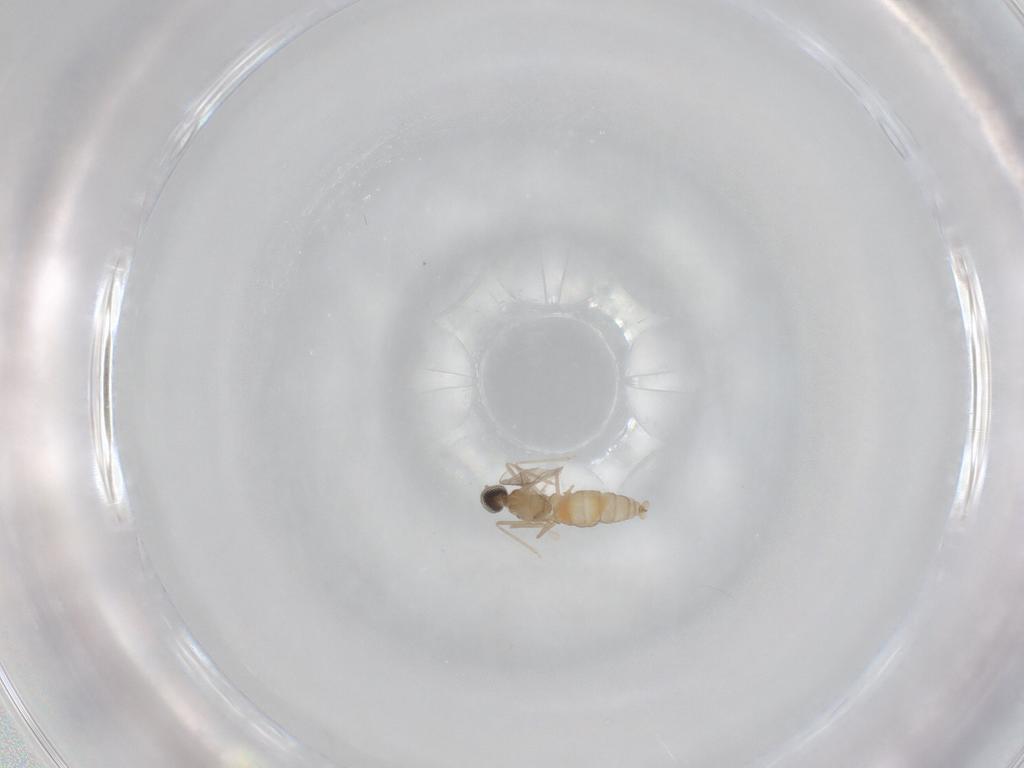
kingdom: Animalia
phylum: Arthropoda
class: Insecta
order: Diptera
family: Cecidomyiidae
